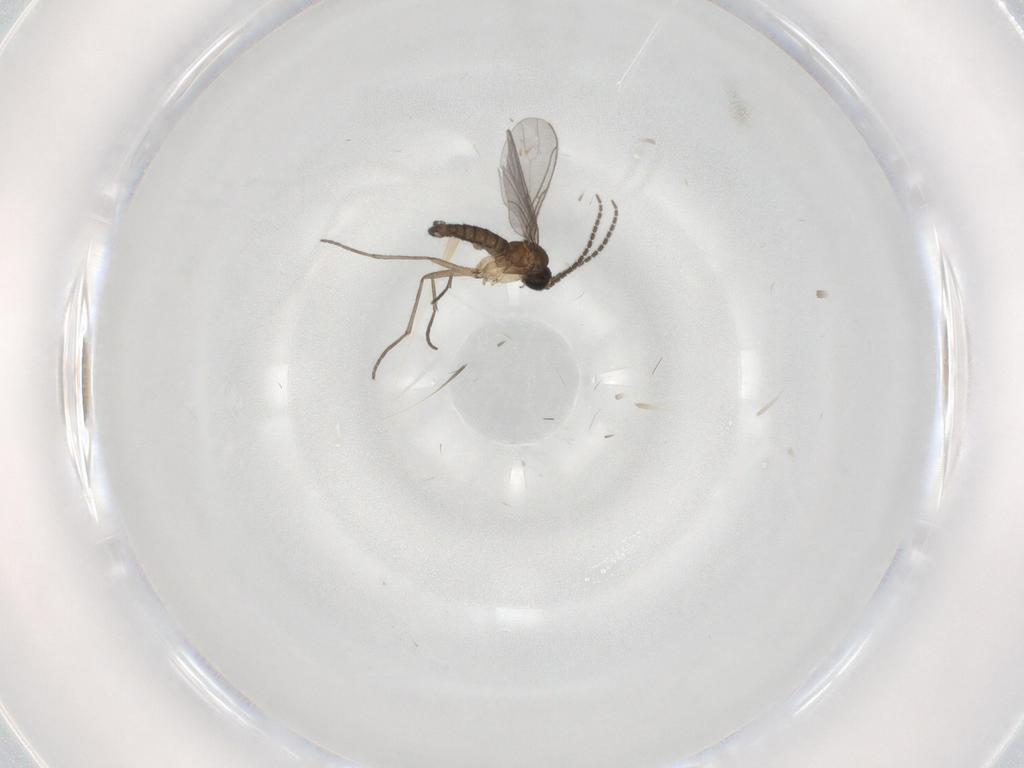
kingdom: Animalia
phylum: Arthropoda
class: Insecta
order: Diptera
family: Sciaridae
